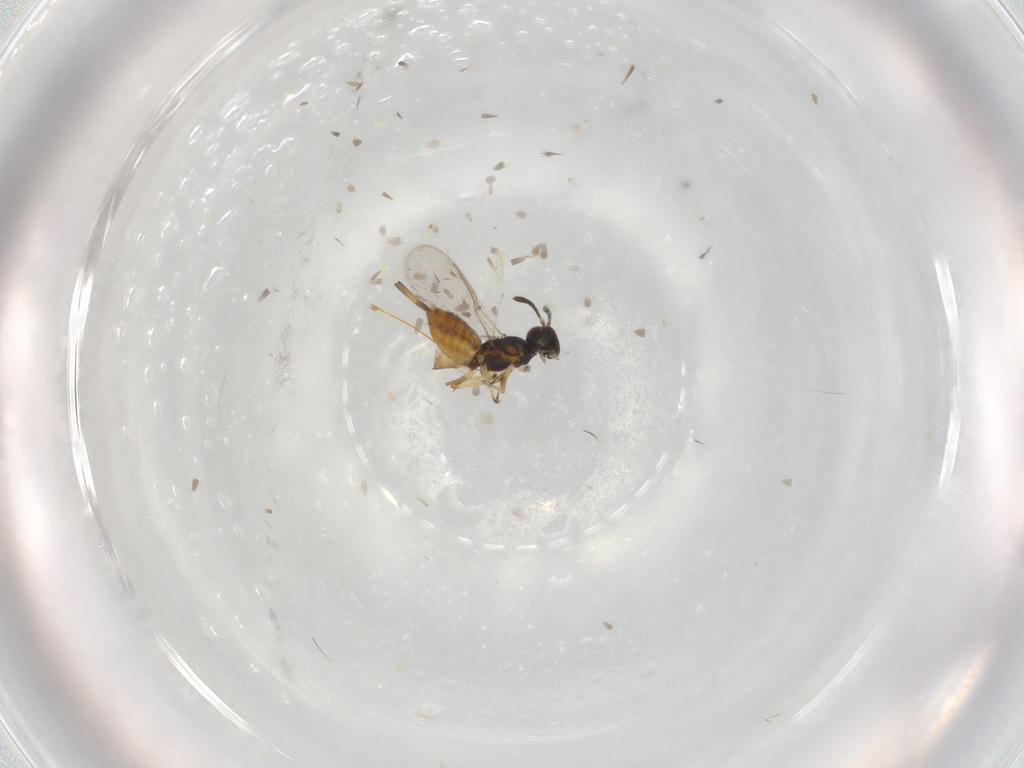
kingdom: Animalia
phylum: Arthropoda
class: Insecta
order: Hymenoptera
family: Eupelmidae
